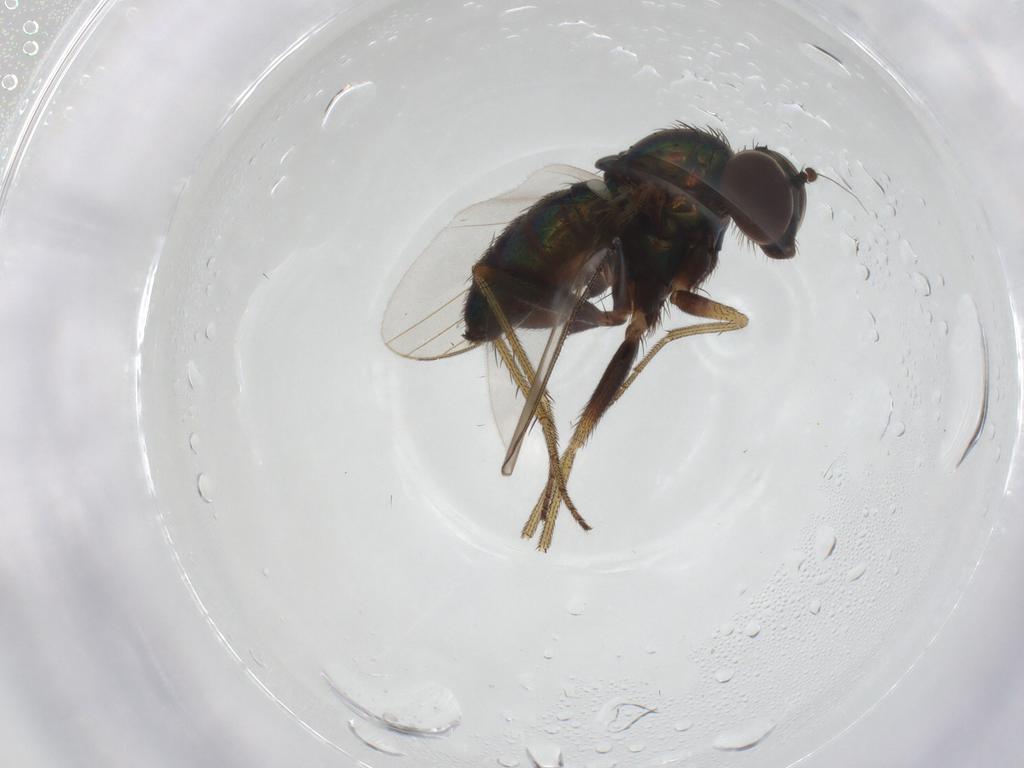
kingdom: Animalia
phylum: Arthropoda
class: Insecta
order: Diptera
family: Dolichopodidae
